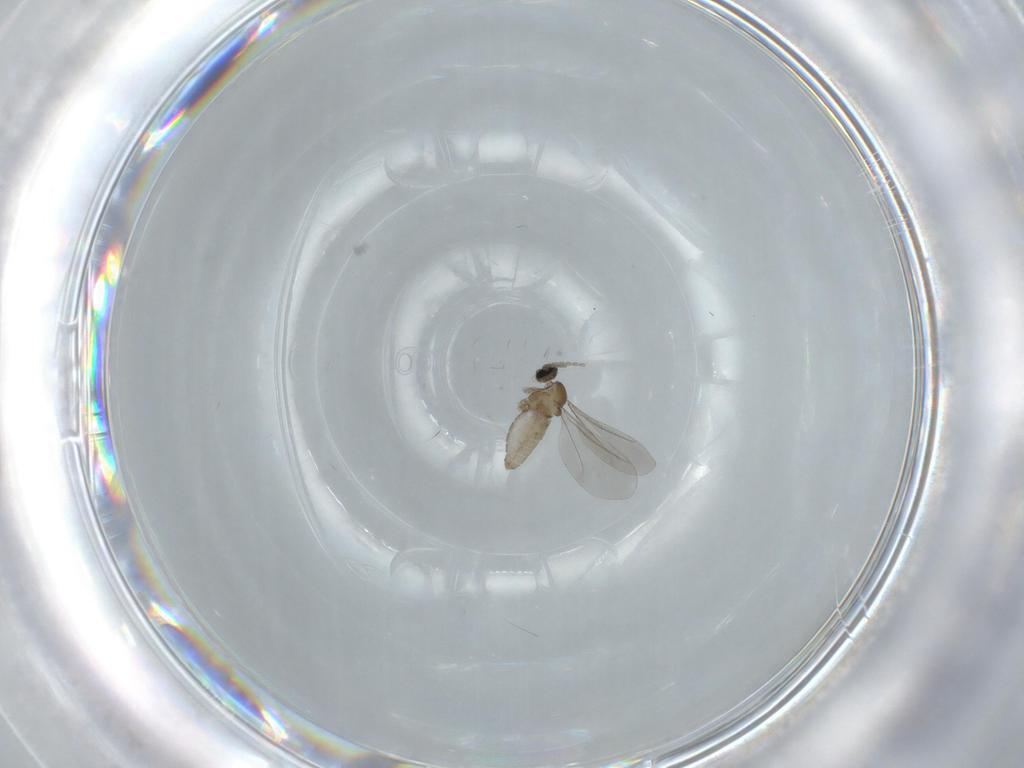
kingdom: Animalia
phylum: Arthropoda
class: Insecta
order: Diptera
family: Cecidomyiidae
